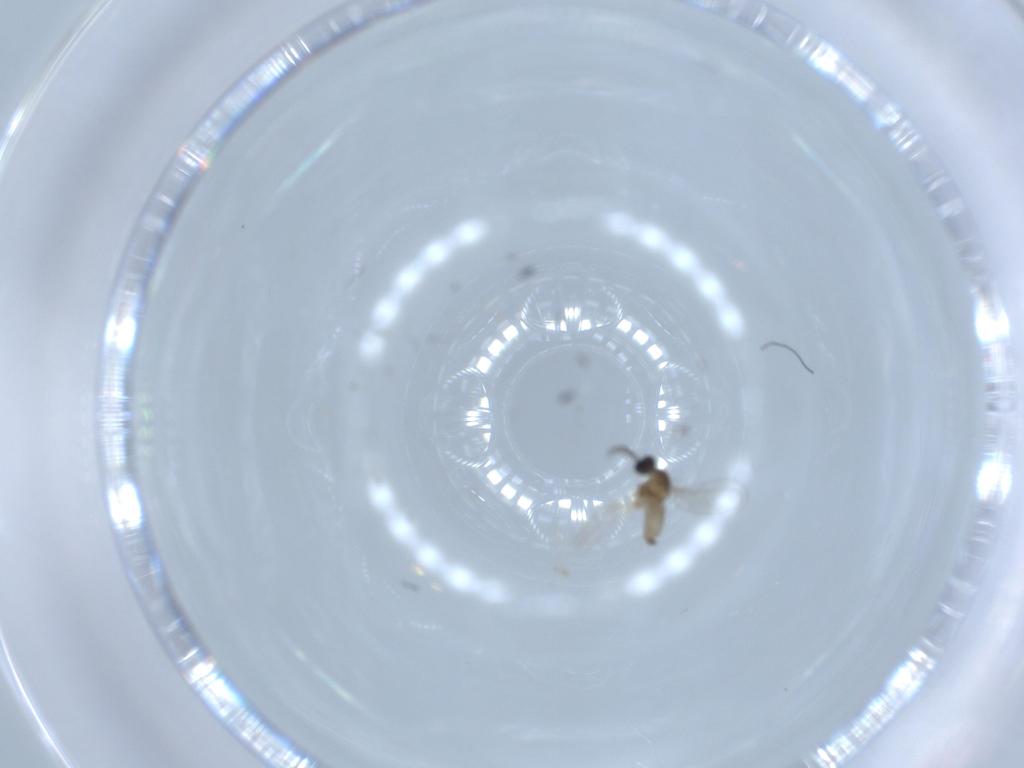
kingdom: Animalia
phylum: Arthropoda
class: Insecta
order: Diptera
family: Cecidomyiidae
